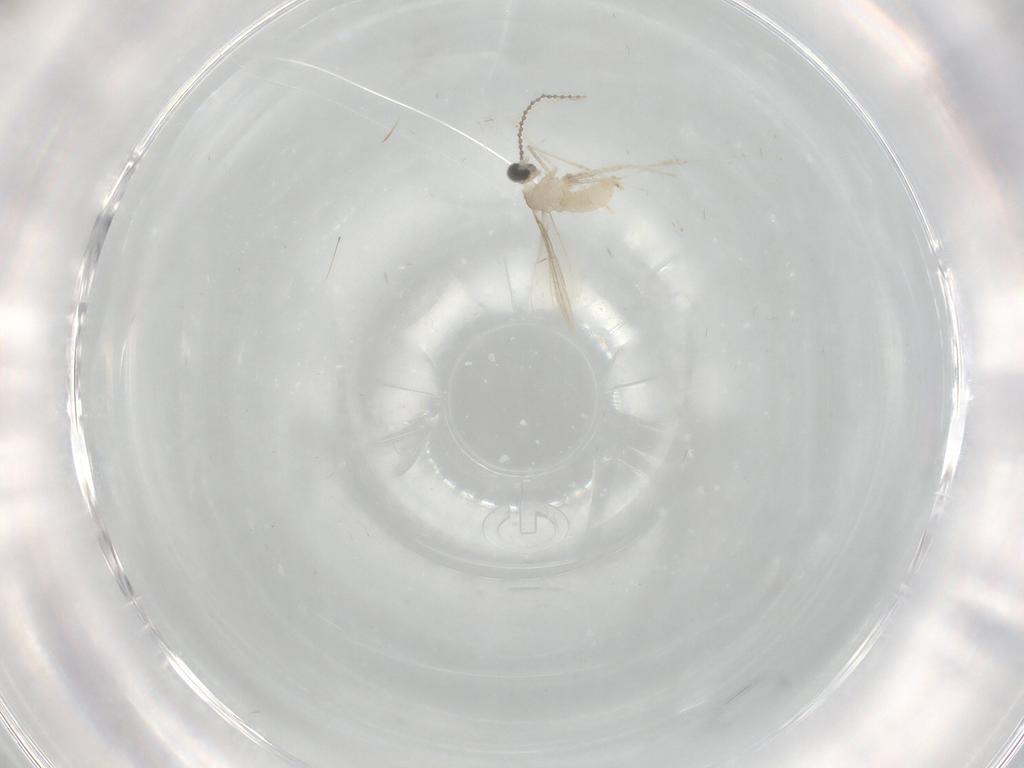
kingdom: Animalia
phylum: Arthropoda
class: Insecta
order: Diptera
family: Cecidomyiidae
